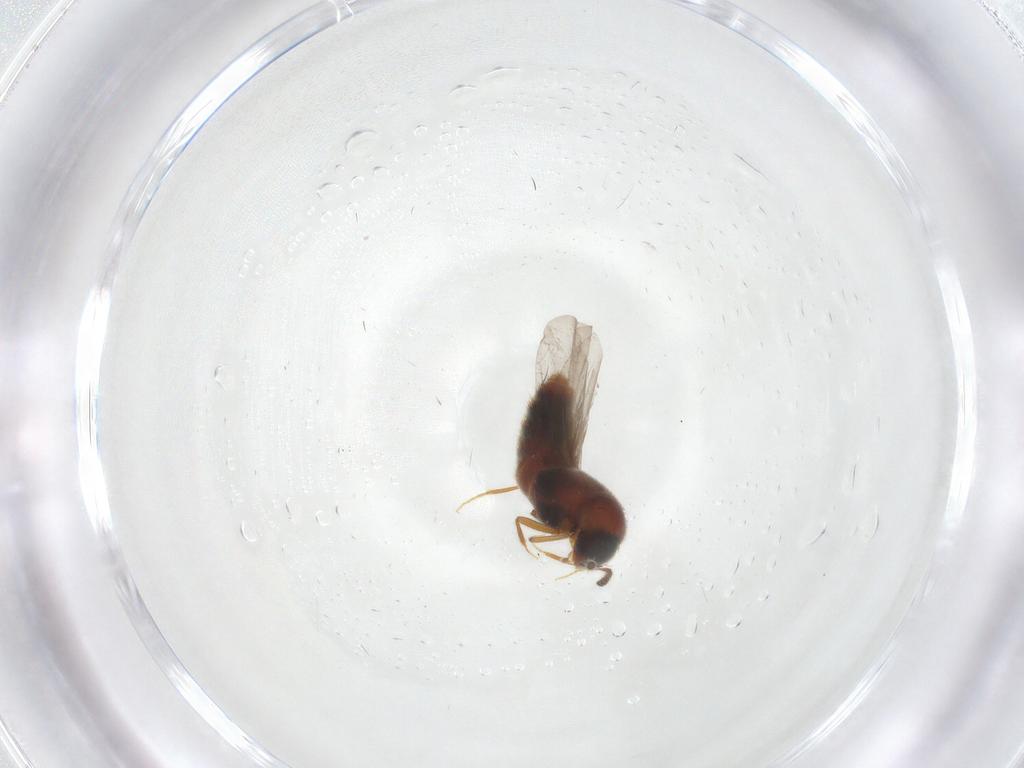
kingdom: Animalia
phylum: Arthropoda
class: Insecta
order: Coleoptera
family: Staphylinidae
